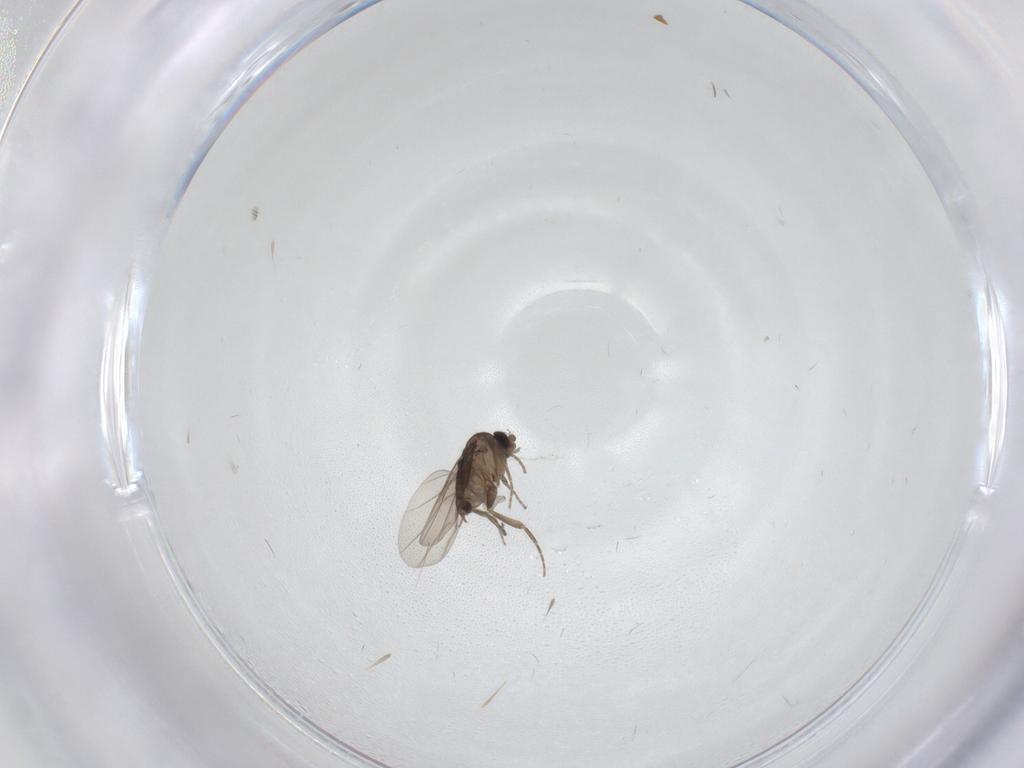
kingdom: Animalia
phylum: Arthropoda
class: Insecta
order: Diptera
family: Phoridae
